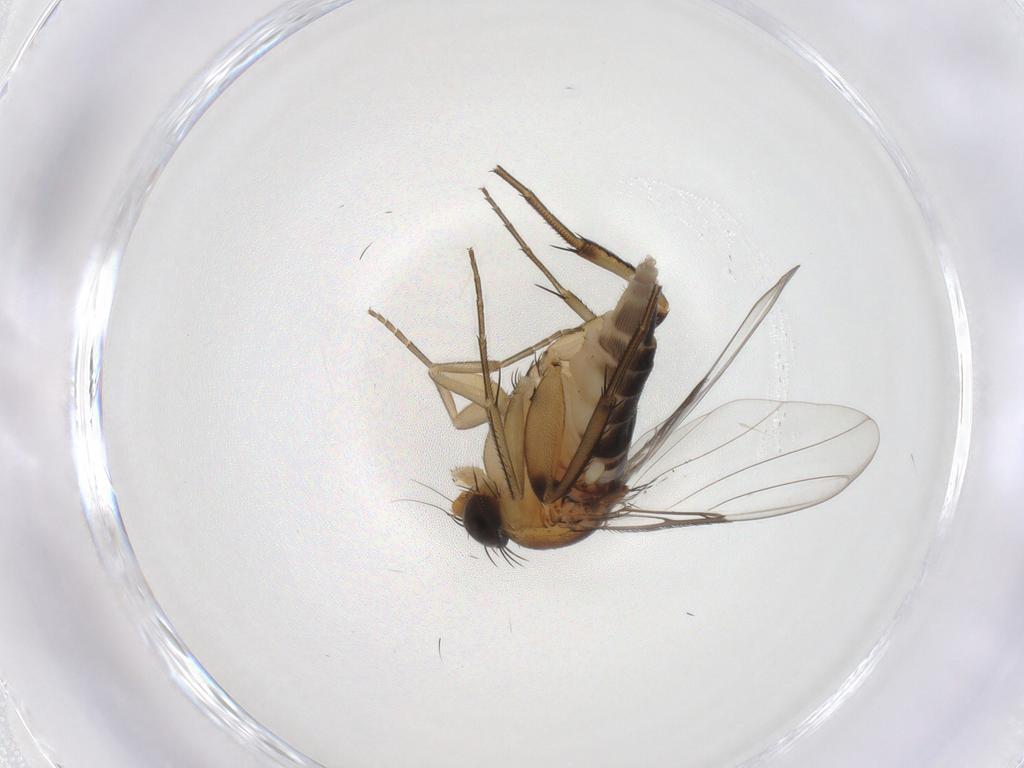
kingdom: Animalia
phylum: Arthropoda
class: Insecta
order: Diptera
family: Phoridae
